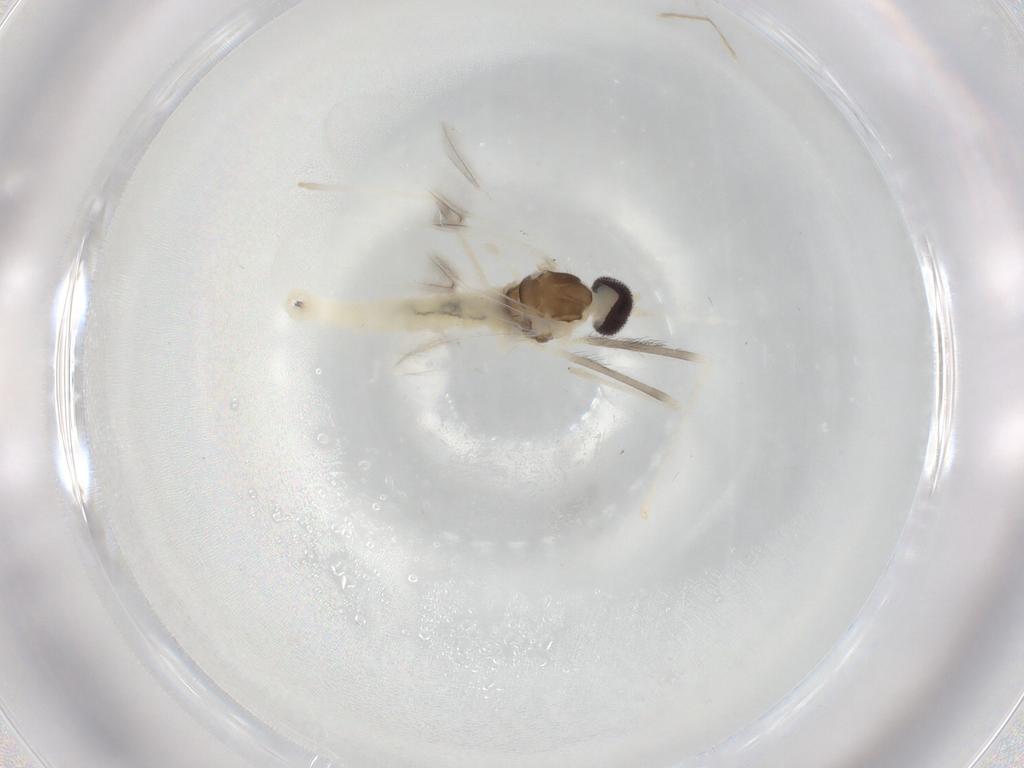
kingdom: Animalia
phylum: Arthropoda
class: Insecta
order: Diptera
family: Cecidomyiidae
